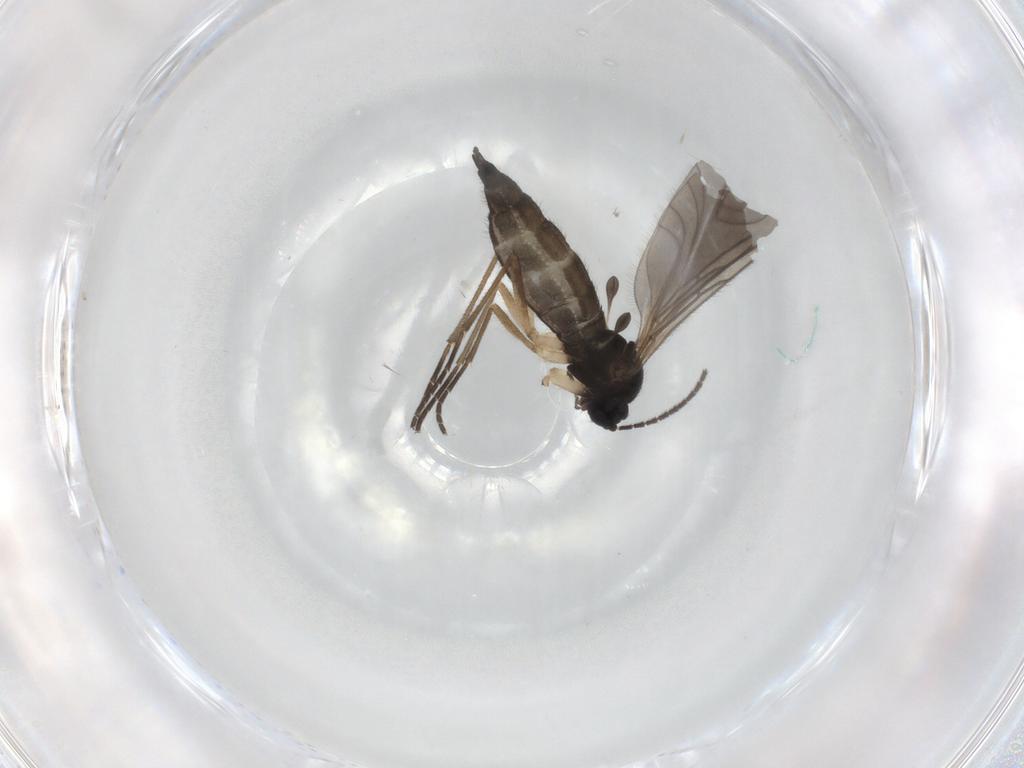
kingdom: Animalia
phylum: Arthropoda
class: Insecta
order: Diptera
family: Sciaridae
